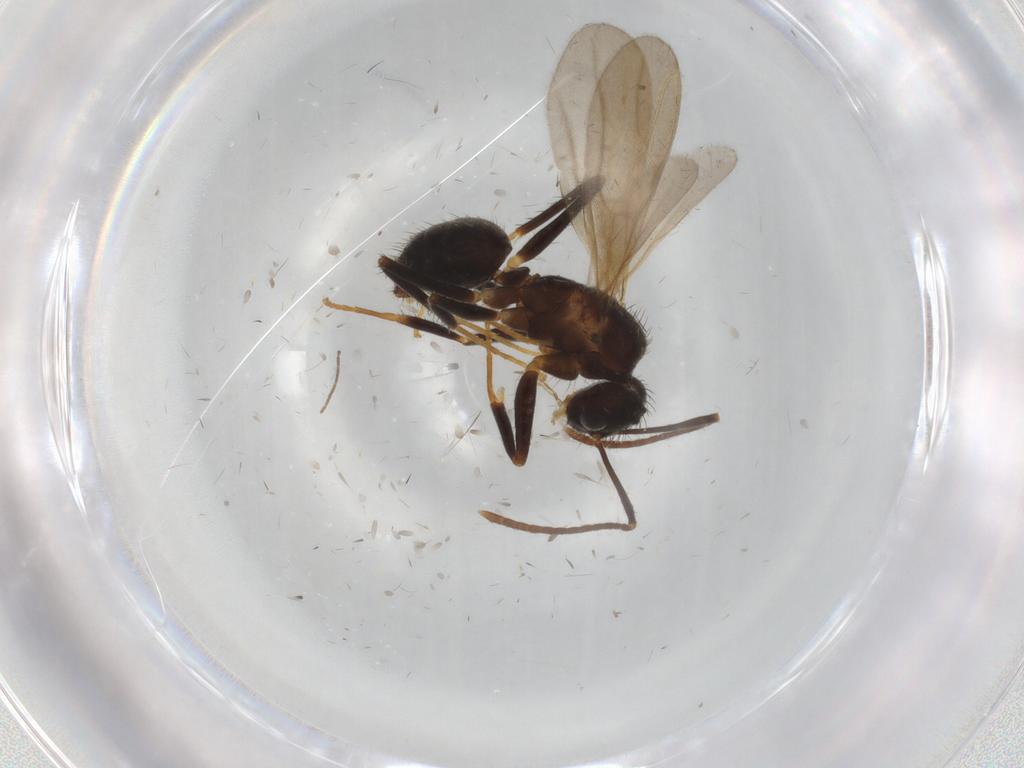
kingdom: Animalia
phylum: Arthropoda
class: Insecta
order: Hymenoptera
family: Formicidae
